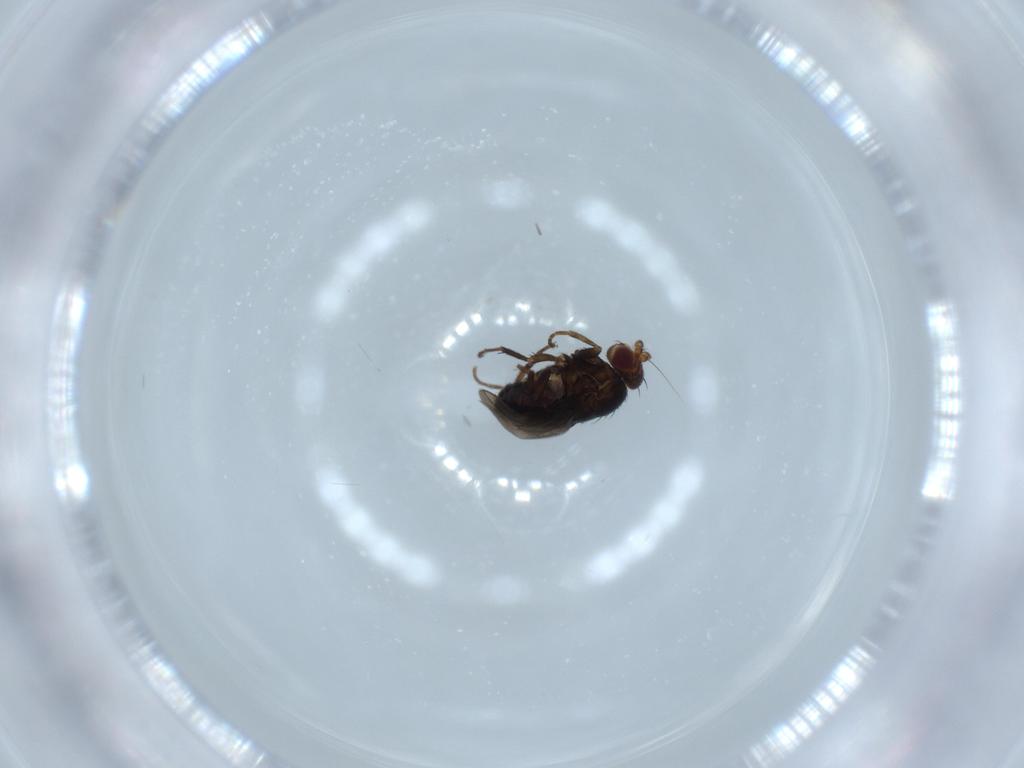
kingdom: Animalia
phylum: Arthropoda
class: Insecta
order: Diptera
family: Sphaeroceridae
